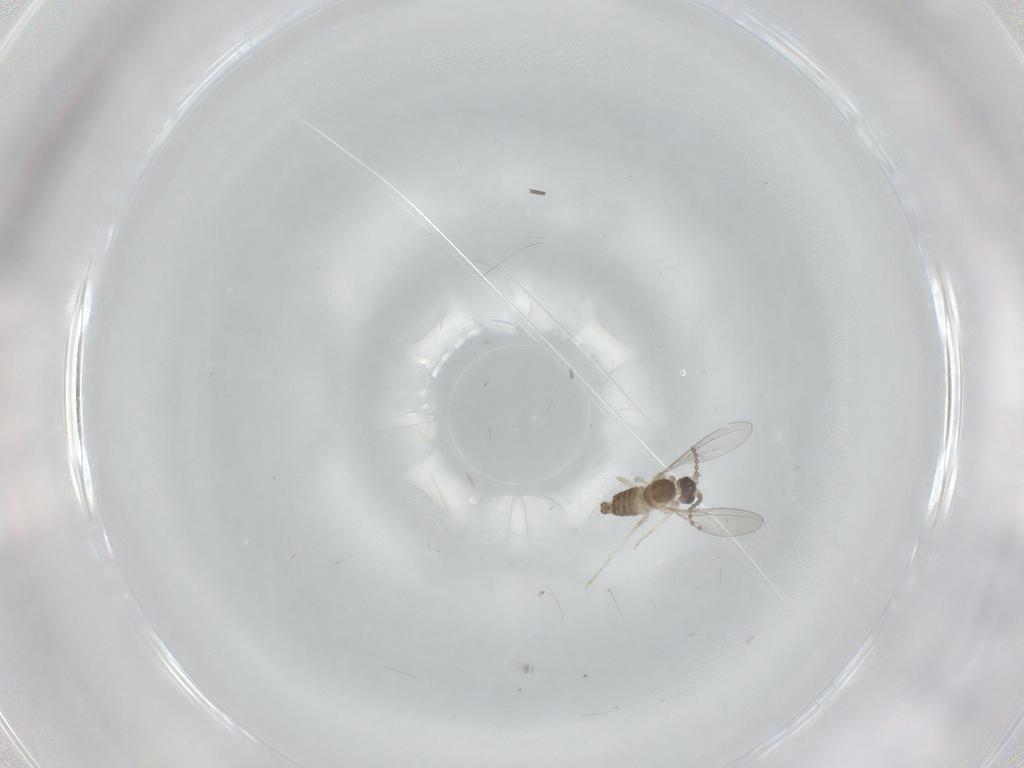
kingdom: Animalia
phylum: Arthropoda
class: Insecta
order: Diptera
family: Cecidomyiidae
